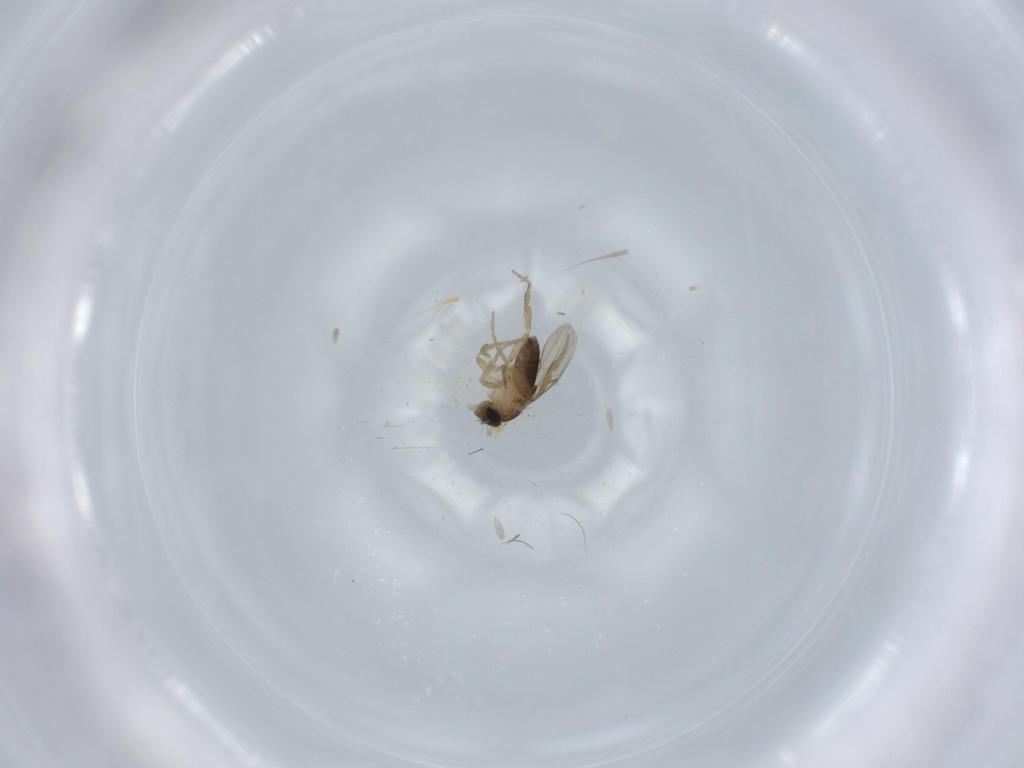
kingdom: Animalia
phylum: Arthropoda
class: Insecta
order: Diptera
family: Phoridae
